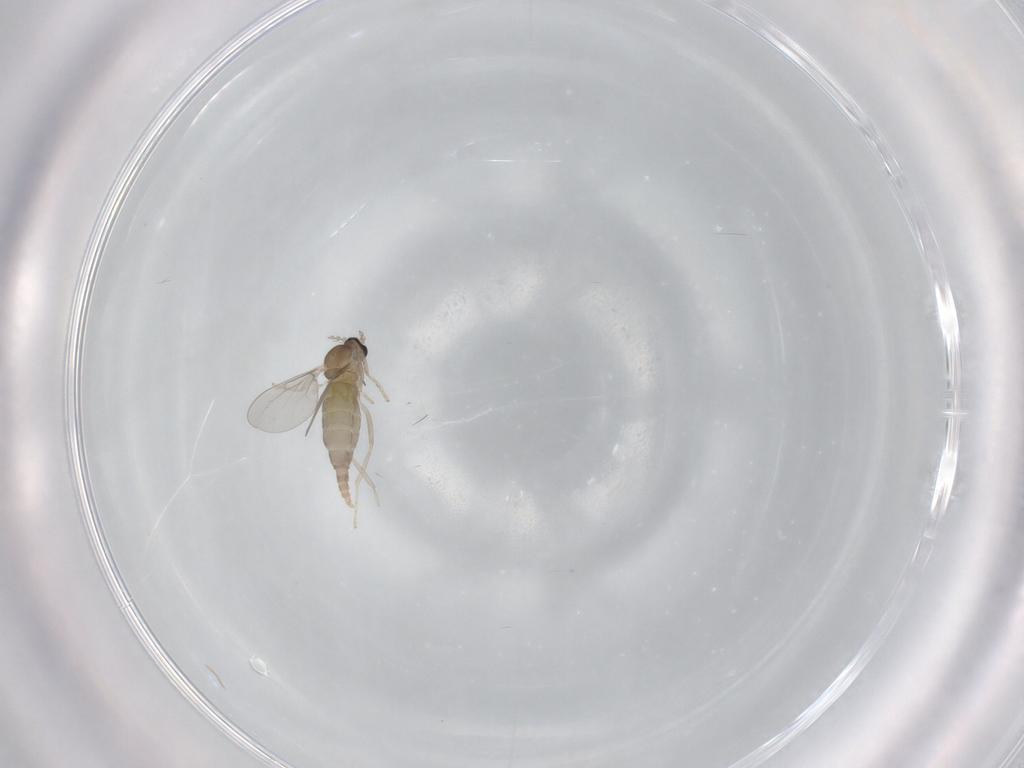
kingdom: Animalia
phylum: Arthropoda
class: Insecta
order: Diptera
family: Cecidomyiidae
